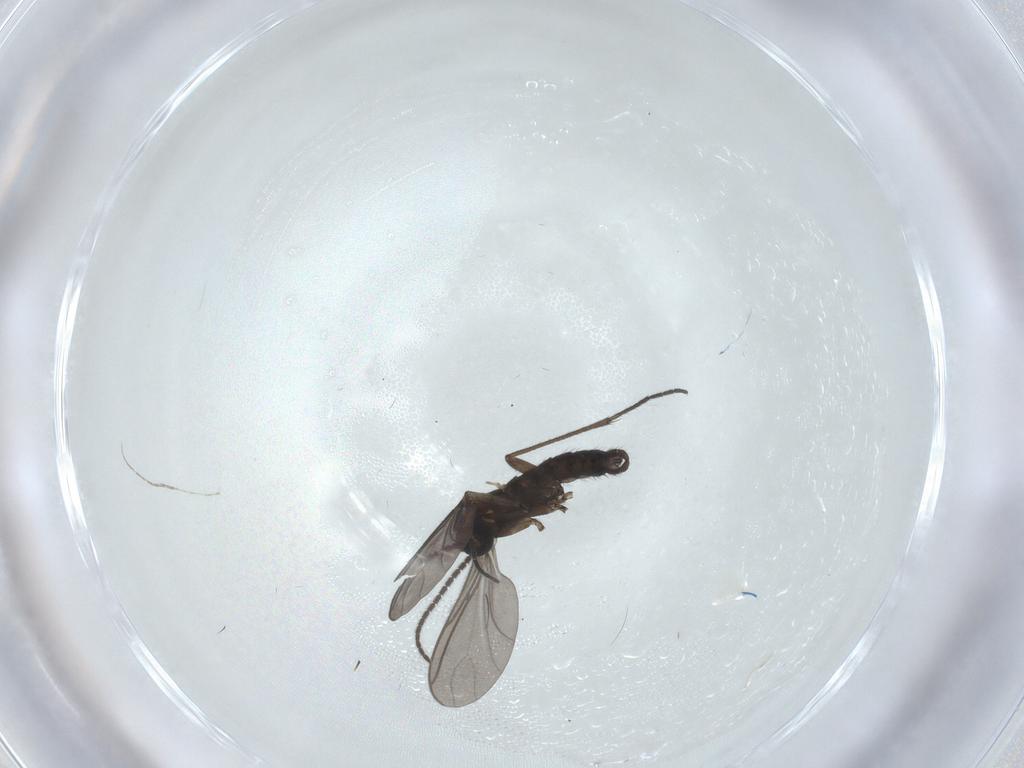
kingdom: Animalia
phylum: Arthropoda
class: Insecta
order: Diptera
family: Sciaridae
